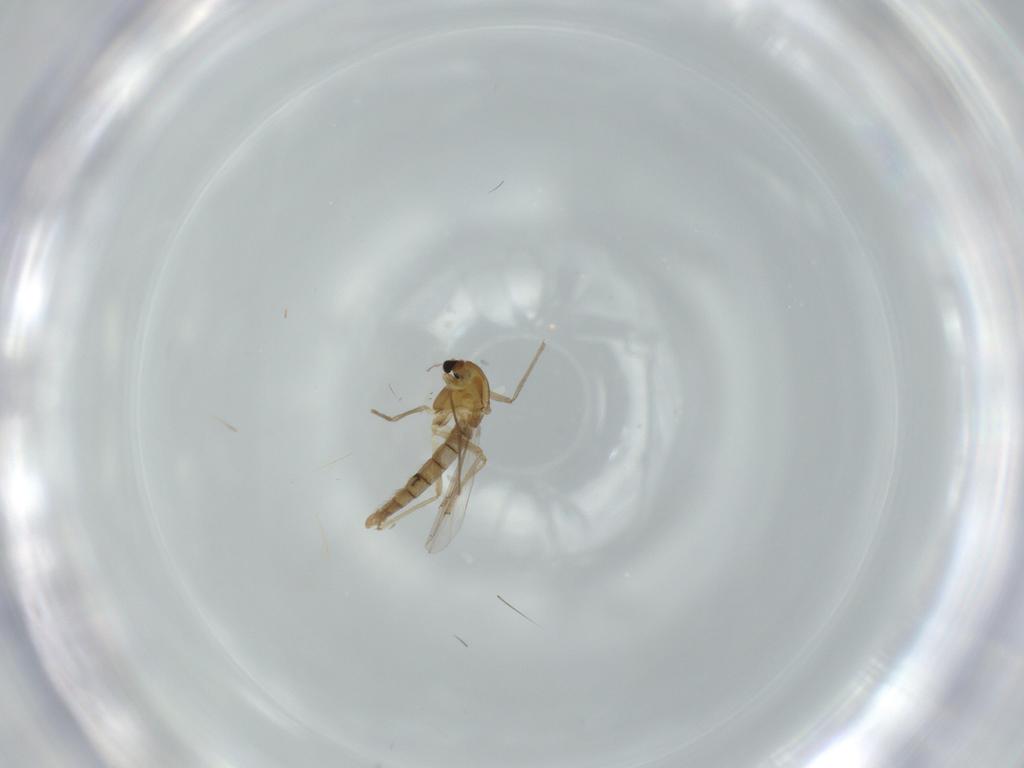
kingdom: Animalia
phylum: Arthropoda
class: Insecta
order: Diptera
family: Chironomidae
